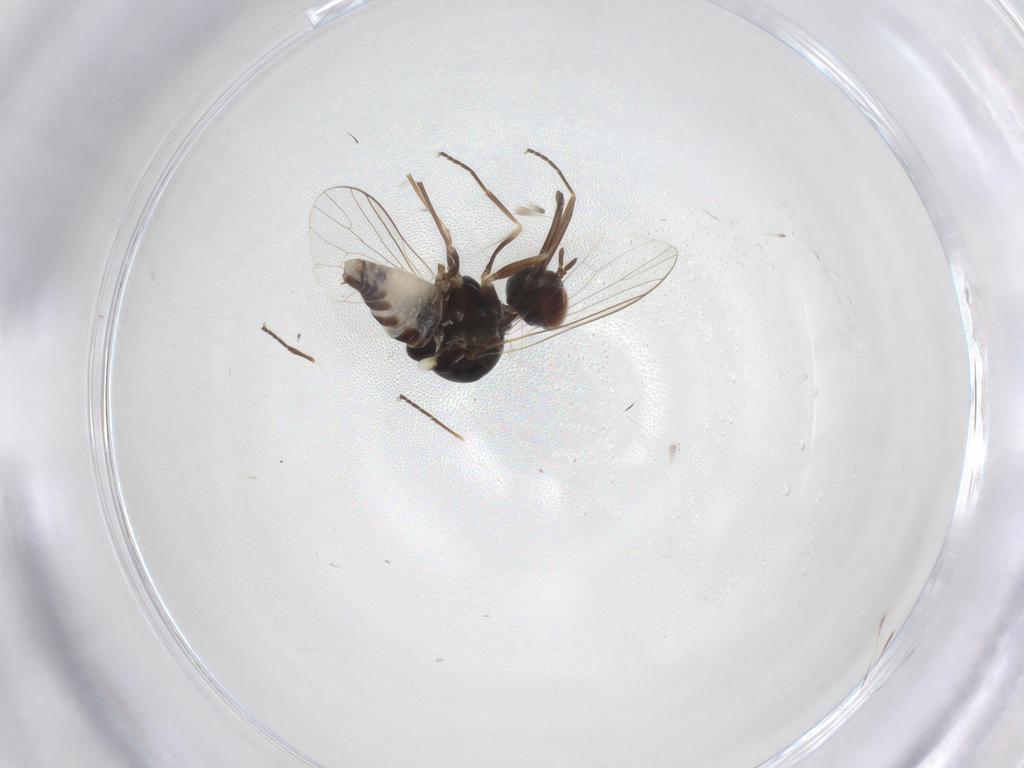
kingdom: Animalia
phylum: Arthropoda
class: Insecta
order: Diptera
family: Bombyliidae
